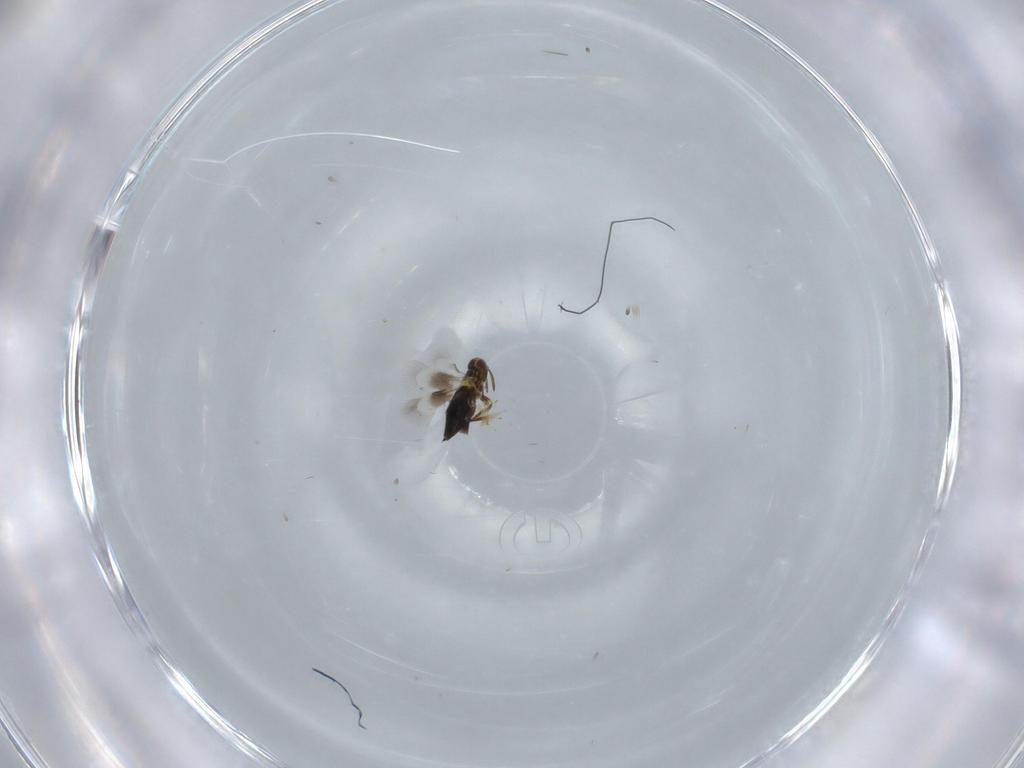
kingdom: Animalia
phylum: Arthropoda
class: Insecta
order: Hymenoptera
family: Signiphoridae
